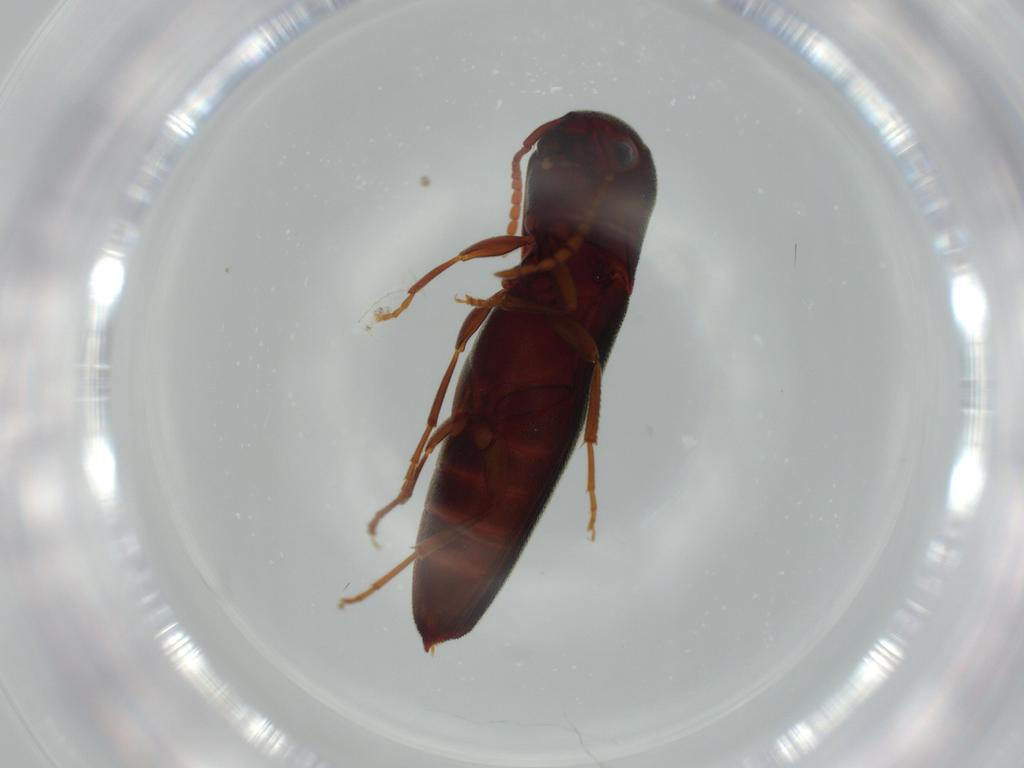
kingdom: Animalia
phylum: Arthropoda
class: Insecta
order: Coleoptera
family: Eucnemidae
